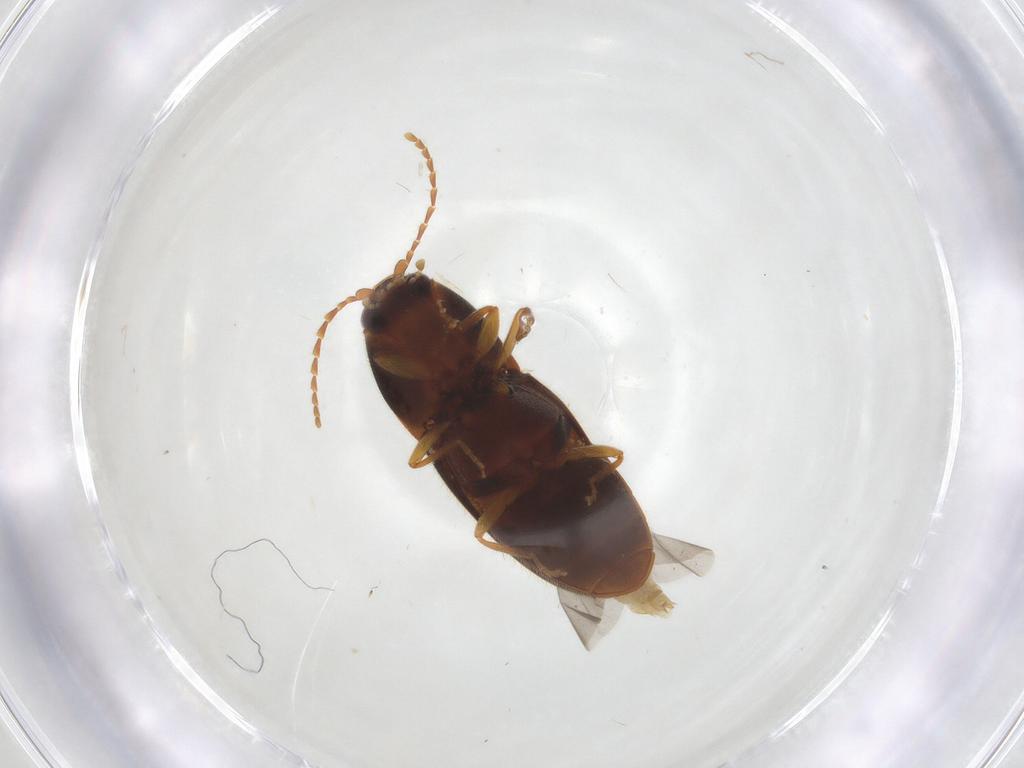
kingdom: Animalia
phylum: Arthropoda
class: Insecta
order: Coleoptera
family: Elateridae
